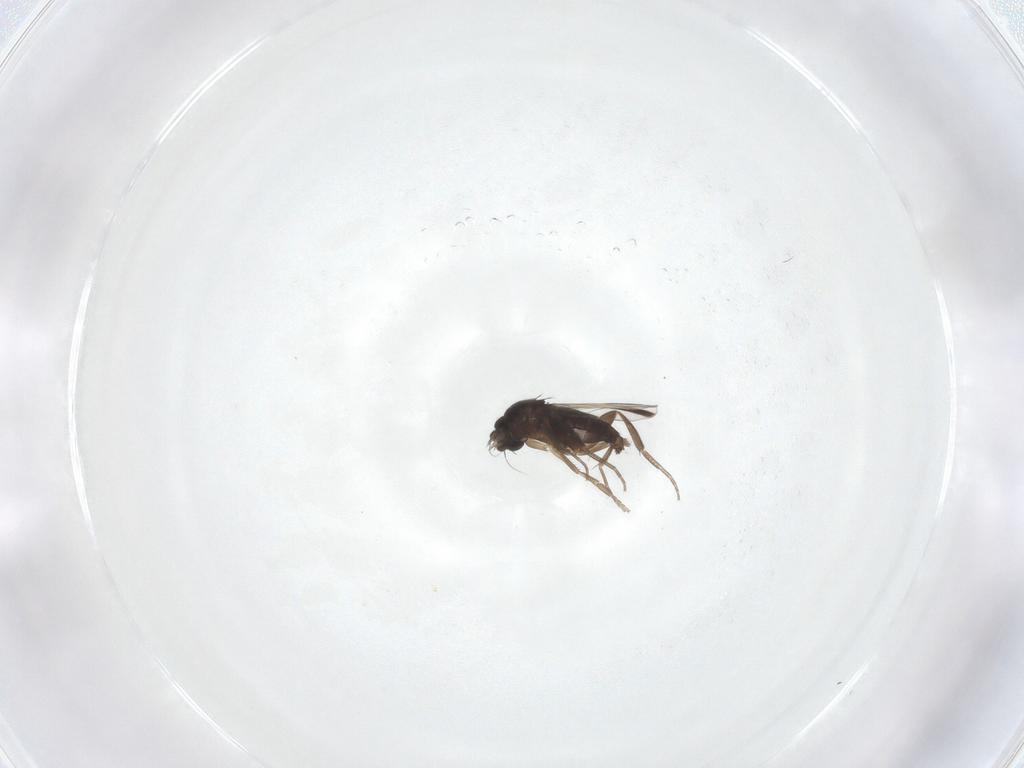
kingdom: Animalia
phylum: Arthropoda
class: Insecta
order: Diptera
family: Phoridae
